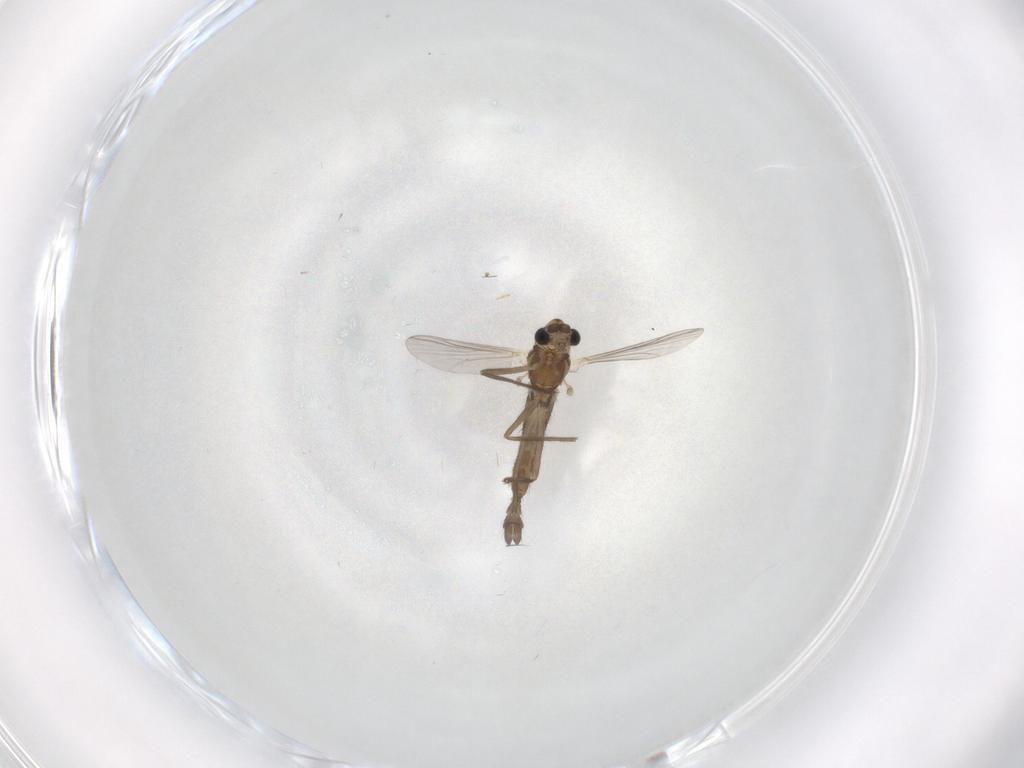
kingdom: Animalia
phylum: Arthropoda
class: Insecta
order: Diptera
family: Chironomidae
